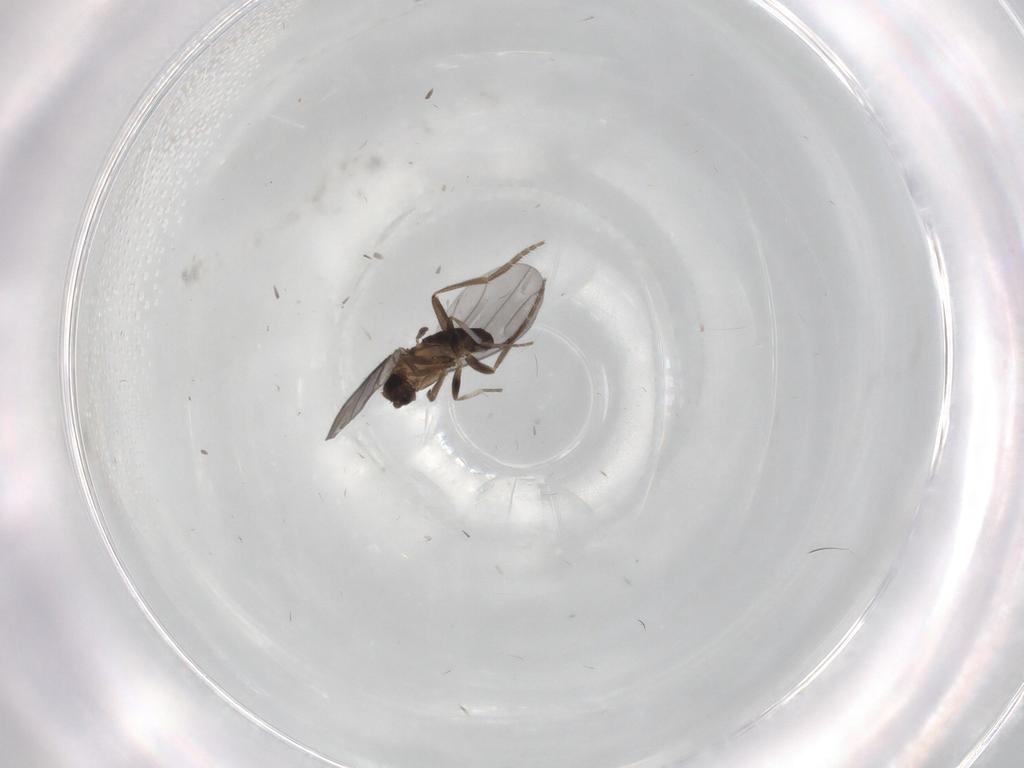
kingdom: Animalia
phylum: Arthropoda
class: Insecta
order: Diptera
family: Phoridae
